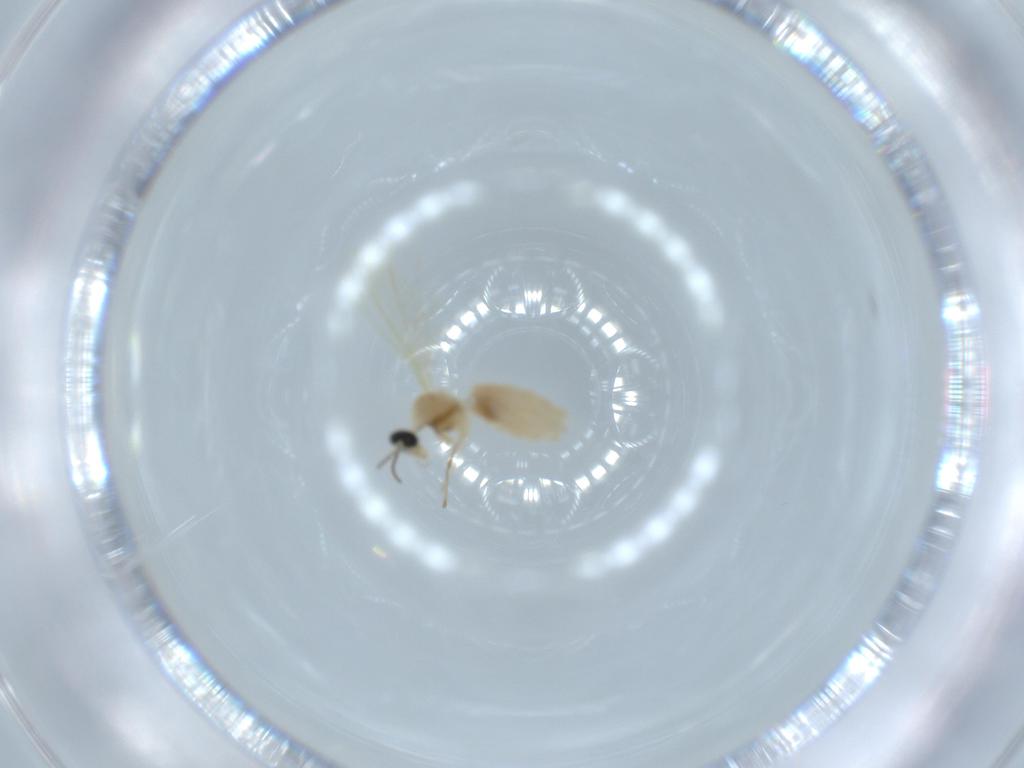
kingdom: Animalia
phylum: Arthropoda
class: Insecta
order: Diptera
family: Cecidomyiidae
